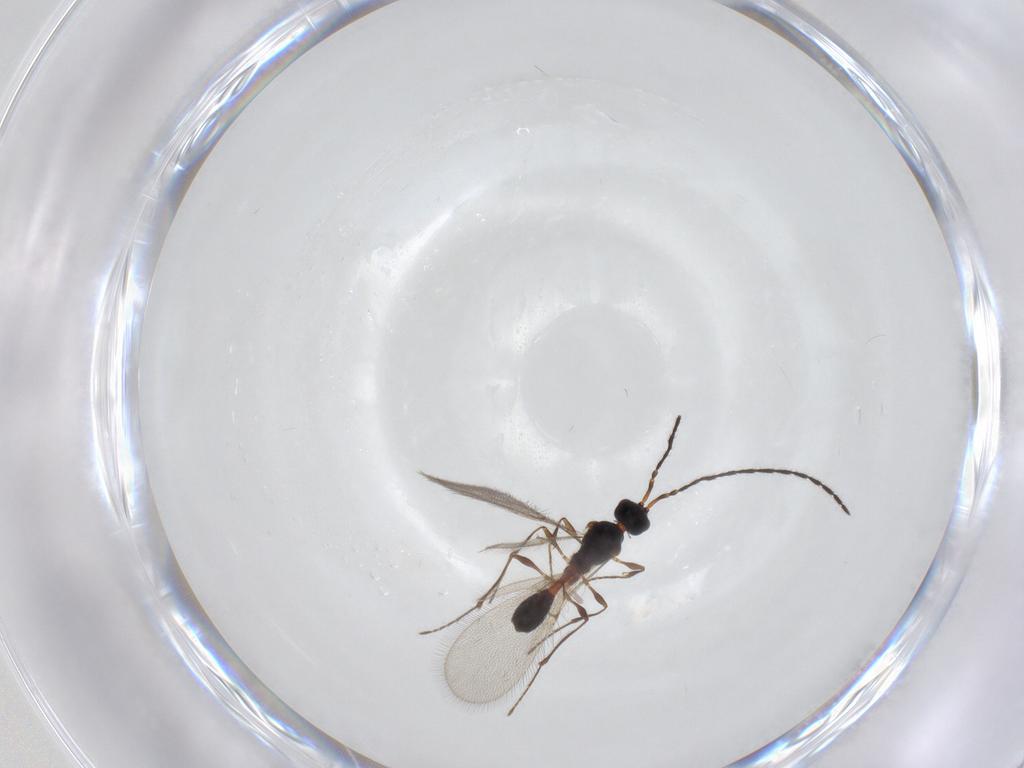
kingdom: Animalia
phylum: Arthropoda
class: Insecta
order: Hymenoptera
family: Diapriidae
